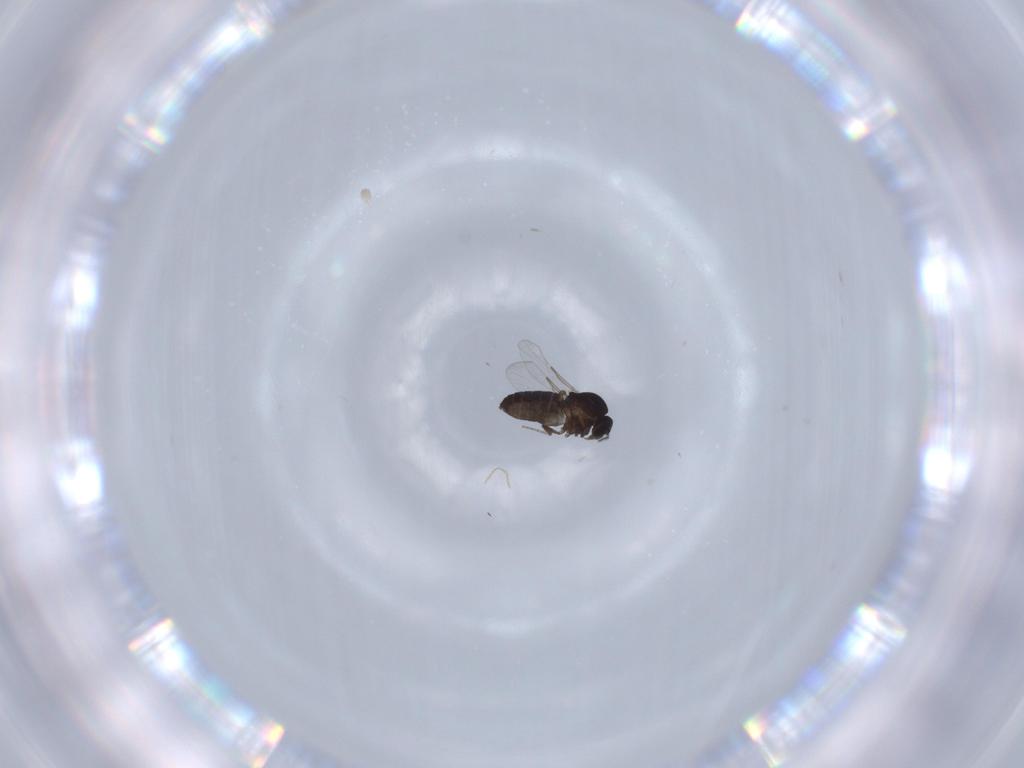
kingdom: Animalia
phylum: Arthropoda
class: Insecta
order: Diptera
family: Ceratopogonidae
